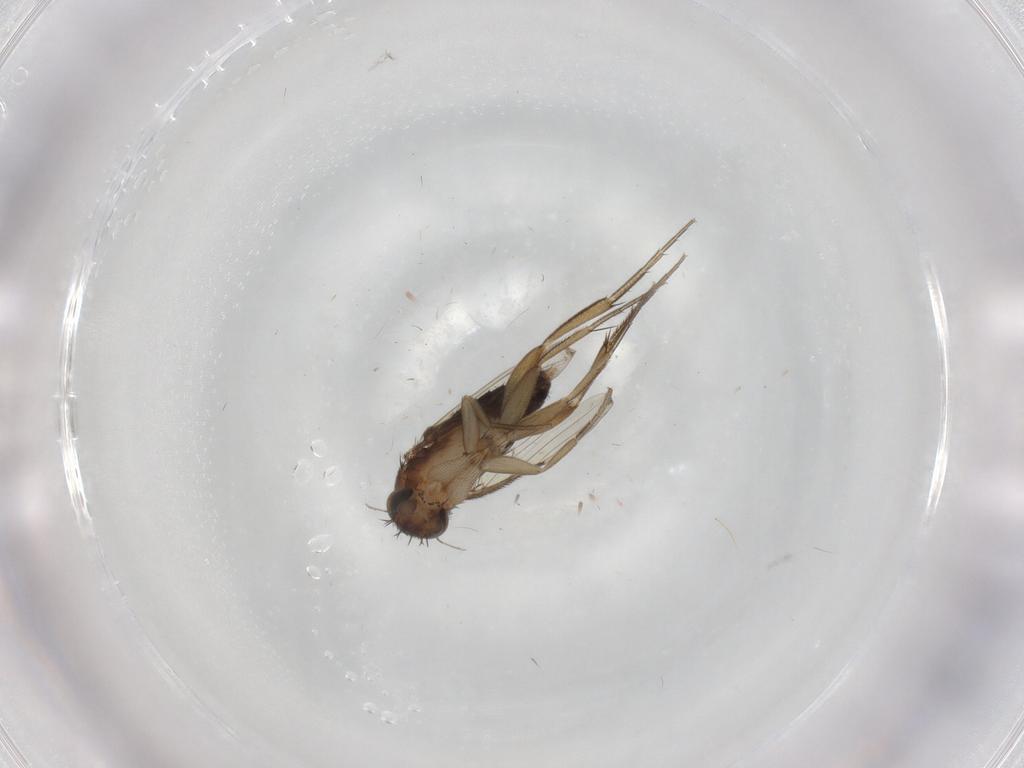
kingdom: Animalia
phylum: Arthropoda
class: Insecta
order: Diptera
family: Phoridae
